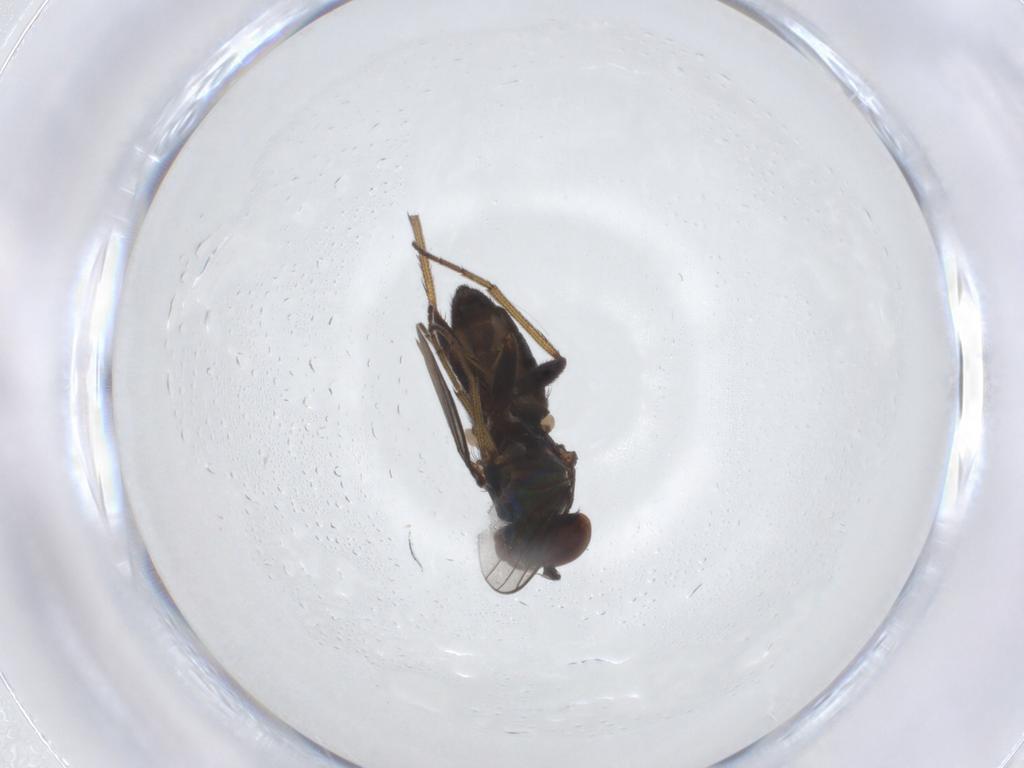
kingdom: Animalia
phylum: Arthropoda
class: Insecta
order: Diptera
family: Dolichopodidae
